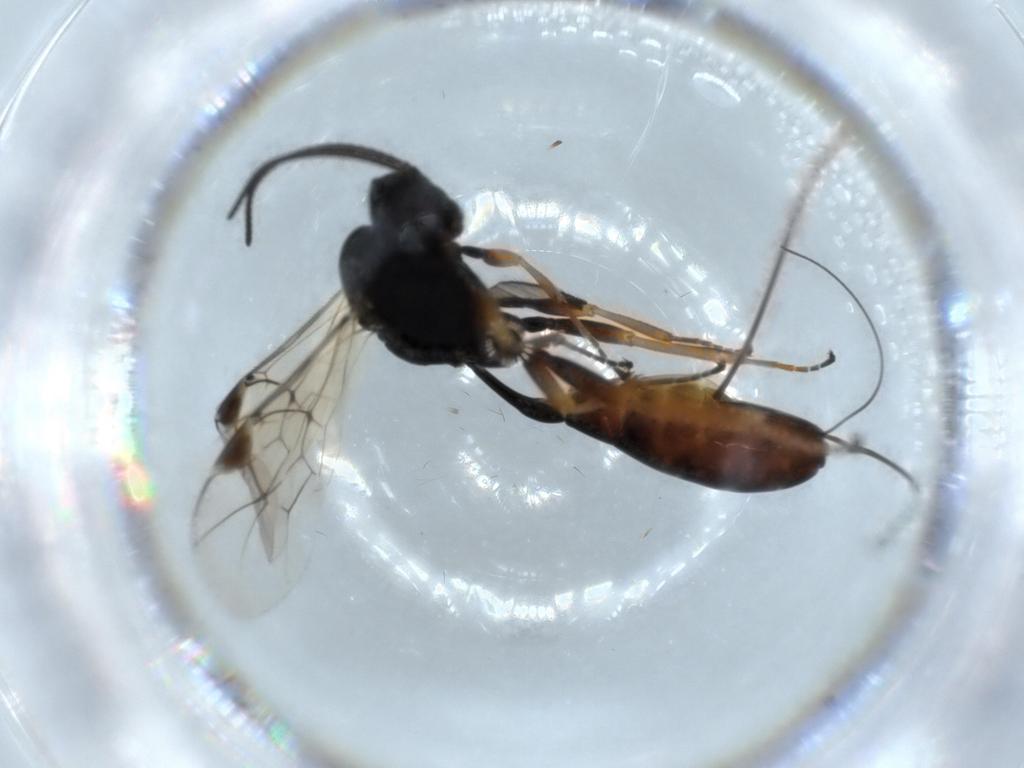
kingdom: Animalia
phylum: Arthropoda
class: Insecta
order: Hymenoptera
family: Ichneumonidae
